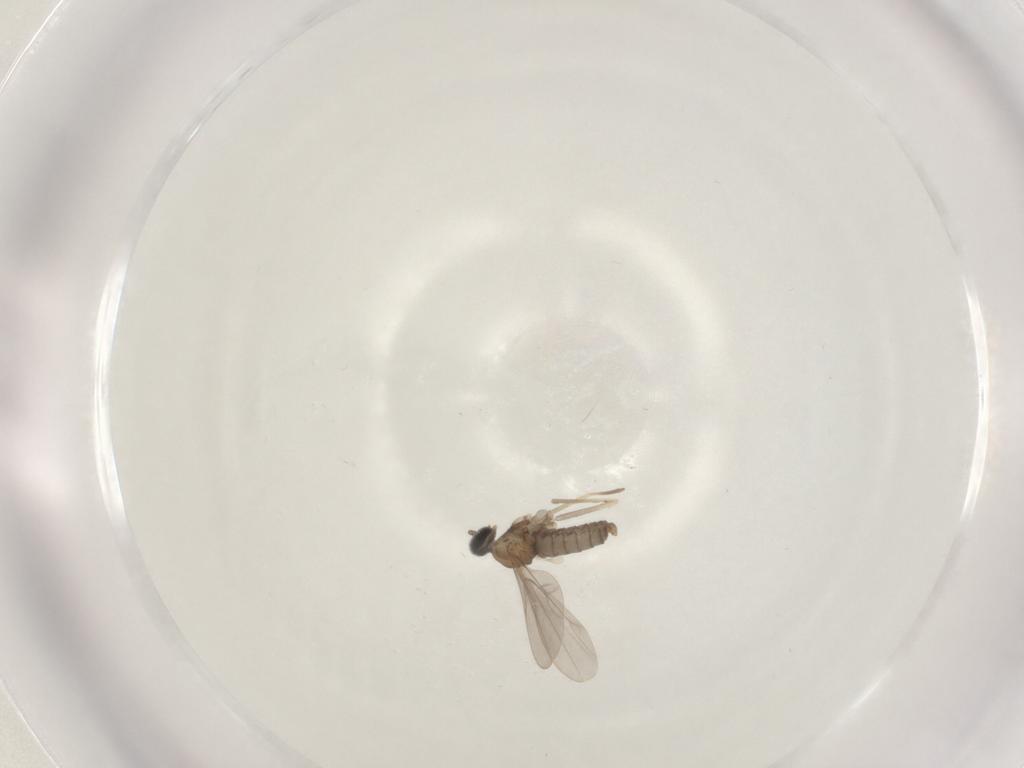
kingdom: Animalia
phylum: Arthropoda
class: Insecta
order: Diptera
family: Cecidomyiidae
